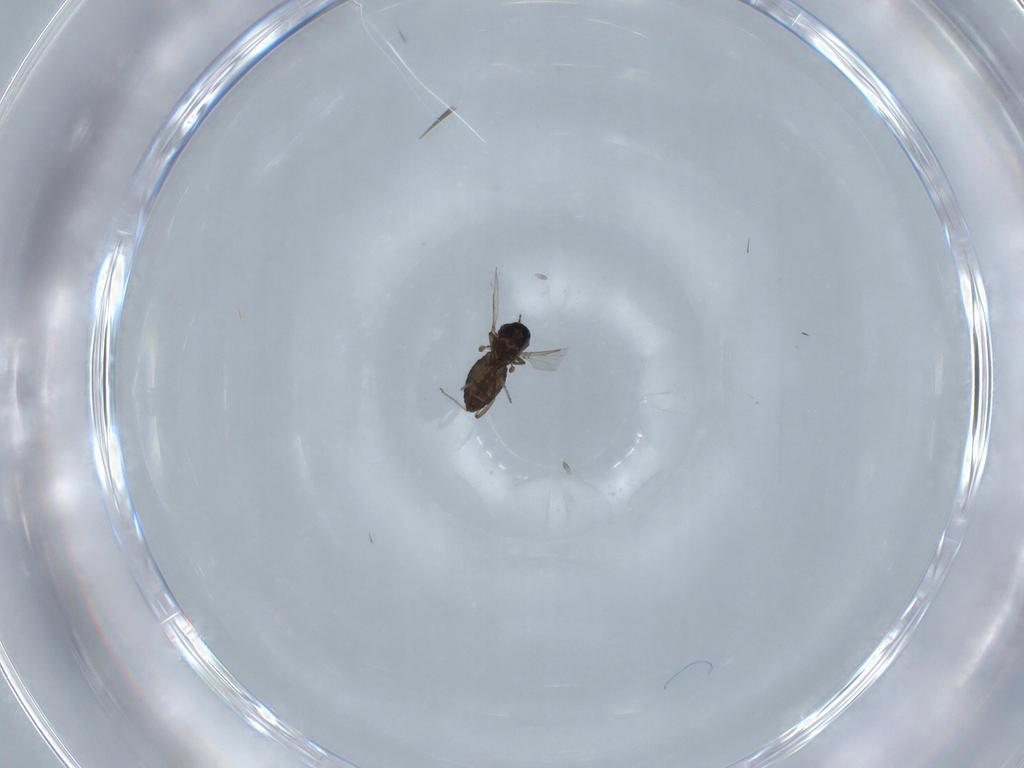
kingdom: Animalia
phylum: Arthropoda
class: Insecta
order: Diptera
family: Ceratopogonidae
